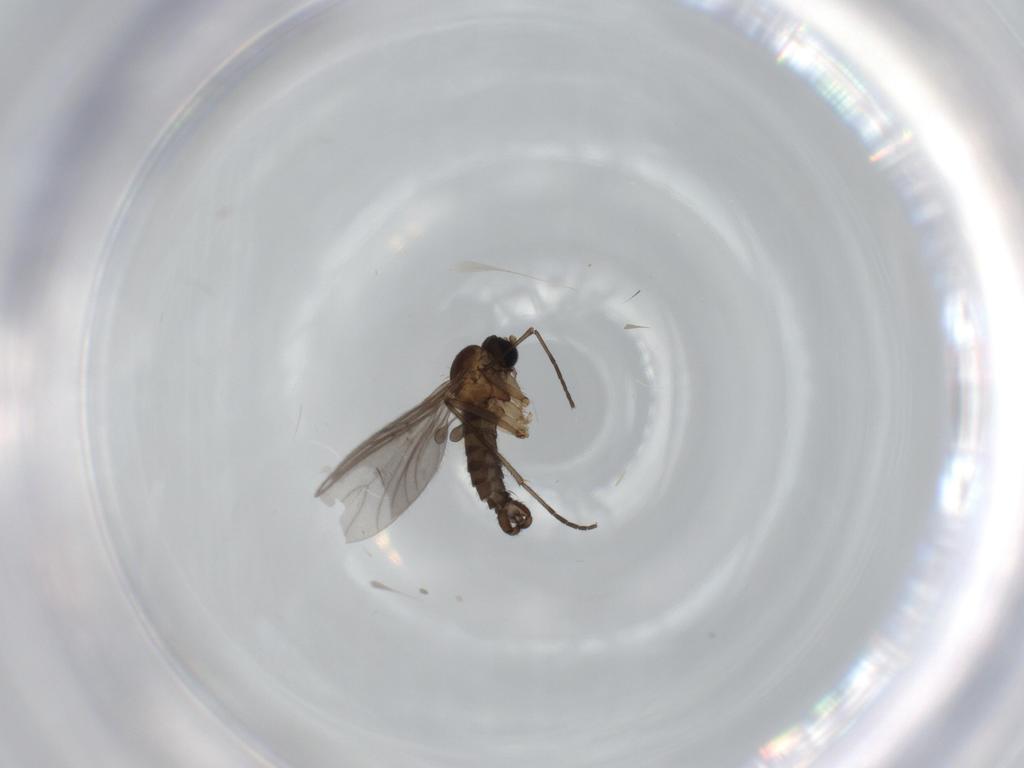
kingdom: Animalia
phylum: Arthropoda
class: Insecta
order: Diptera
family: Sciaridae
